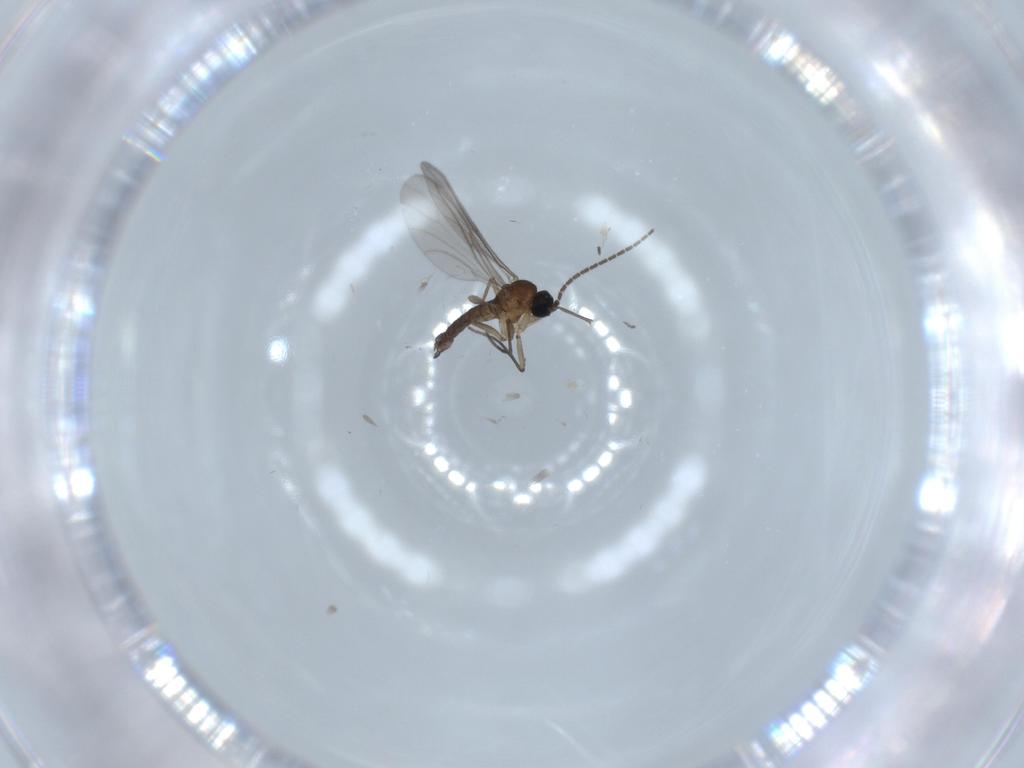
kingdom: Animalia
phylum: Arthropoda
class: Insecta
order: Diptera
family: Sciaridae
